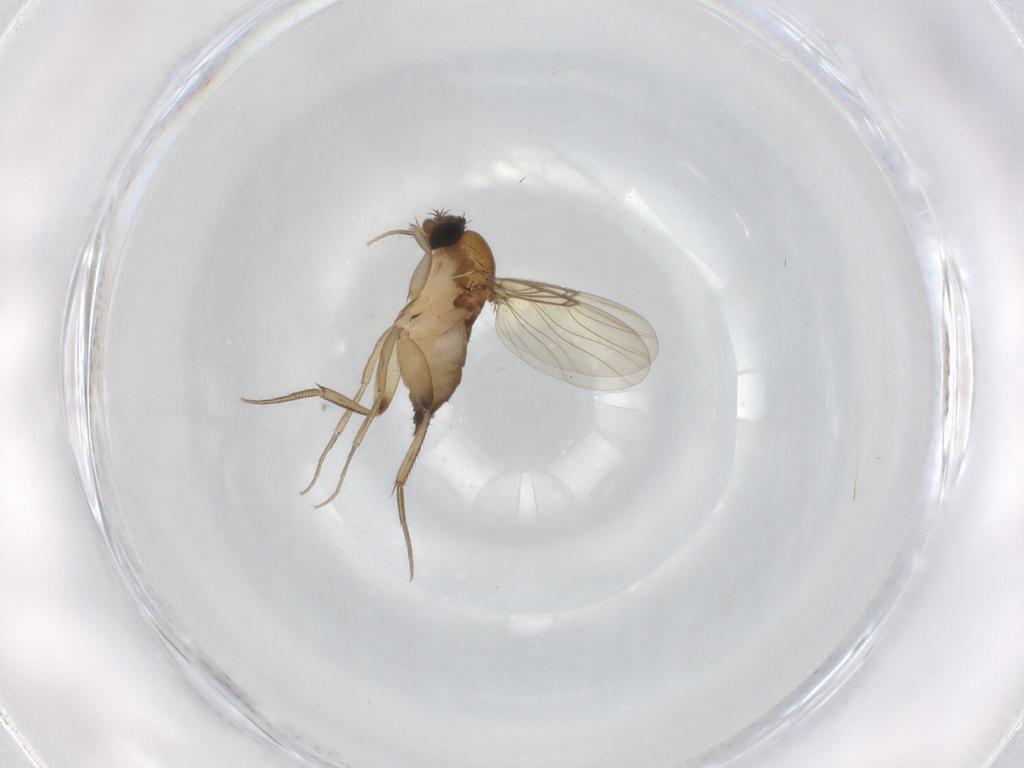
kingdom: Animalia
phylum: Arthropoda
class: Insecta
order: Diptera
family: Phoridae
